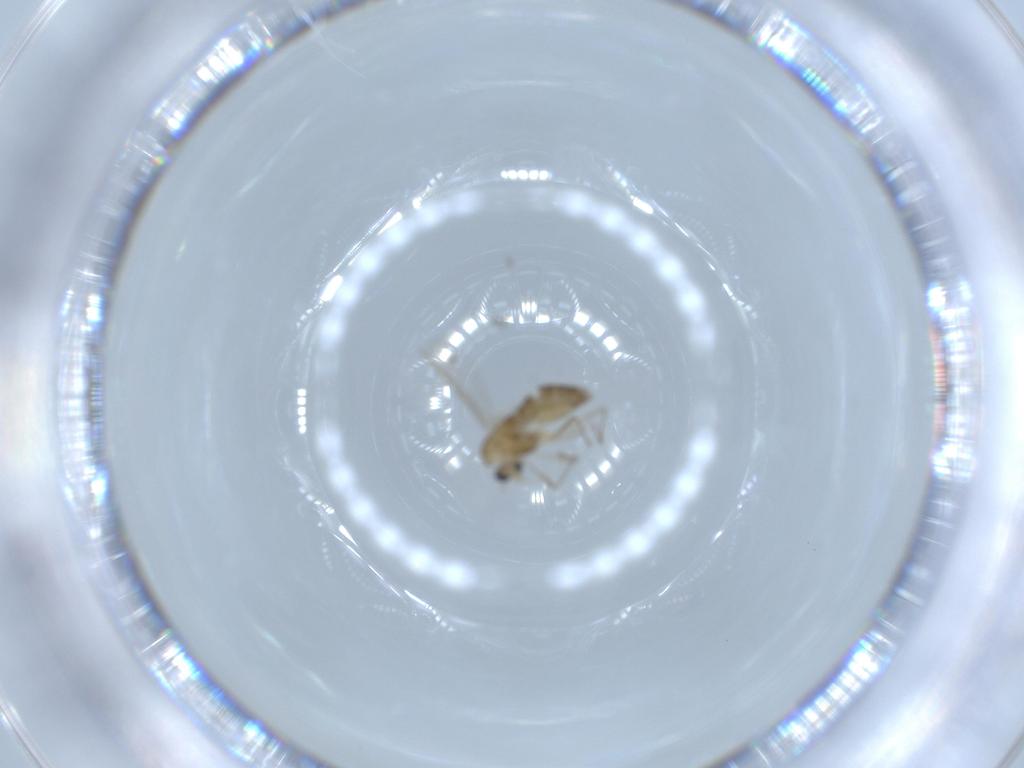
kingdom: Animalia
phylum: Arthropoda
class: Insecta
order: Diptera
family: Chironomidae
